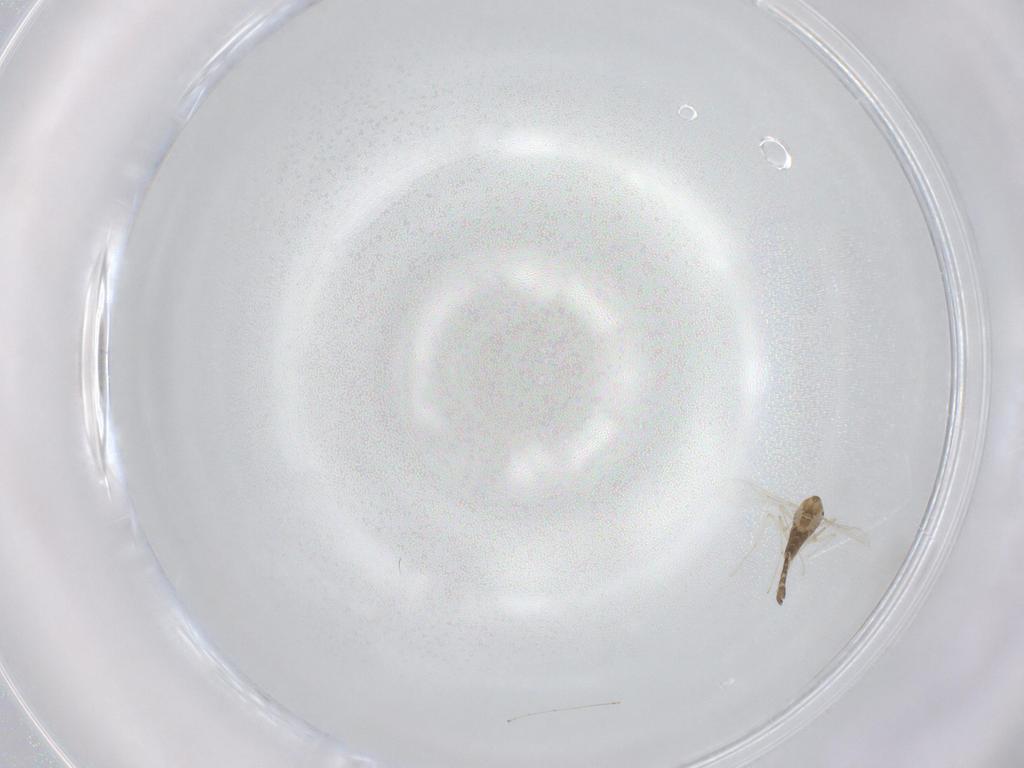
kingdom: Animalia
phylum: Arthropoda
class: Insecta
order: Diptera
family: Chironomidae
